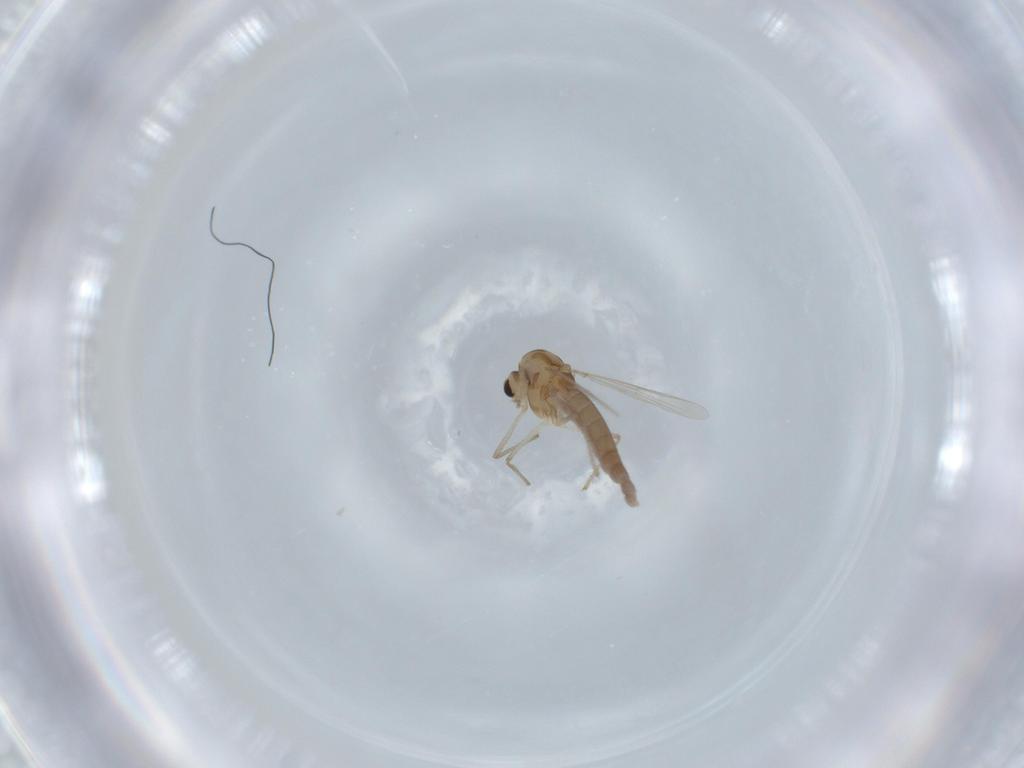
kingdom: Animalia
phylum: Arthropoda
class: Insecta
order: Diptera
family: Chironomidae
